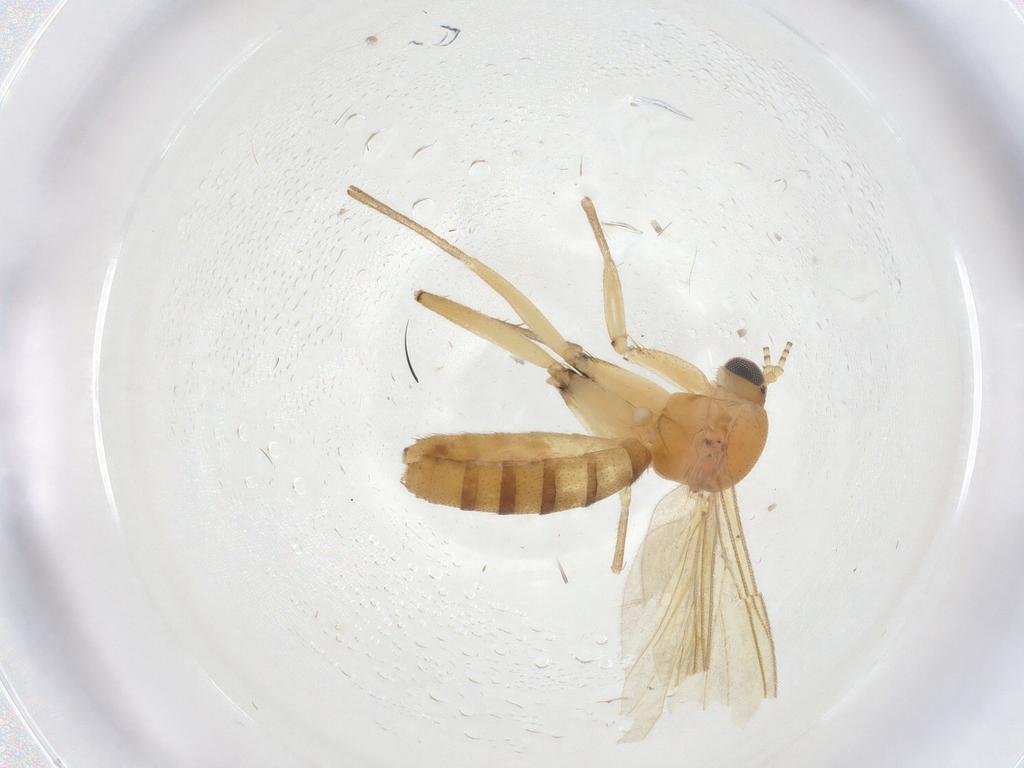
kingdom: Animalia
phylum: Arthropoda
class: Insecta
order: Diptera
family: Mycetophilidae
